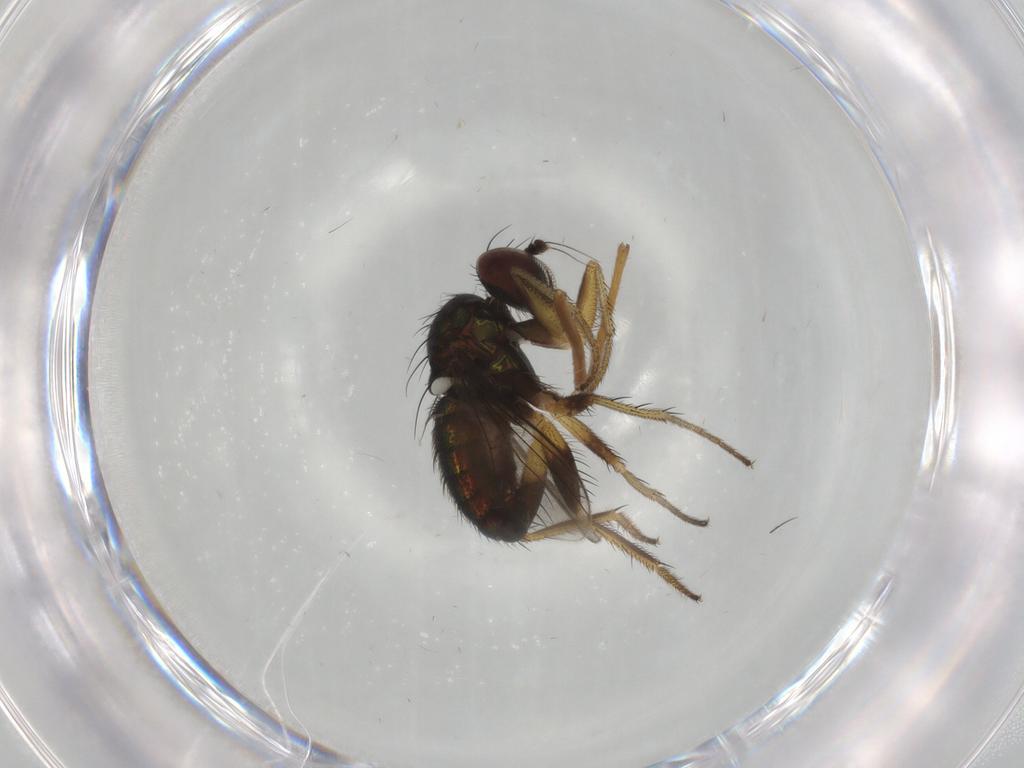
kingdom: Animalia
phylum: Arthropoda
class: Insecta
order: Diptera
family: Dolichopodidae
